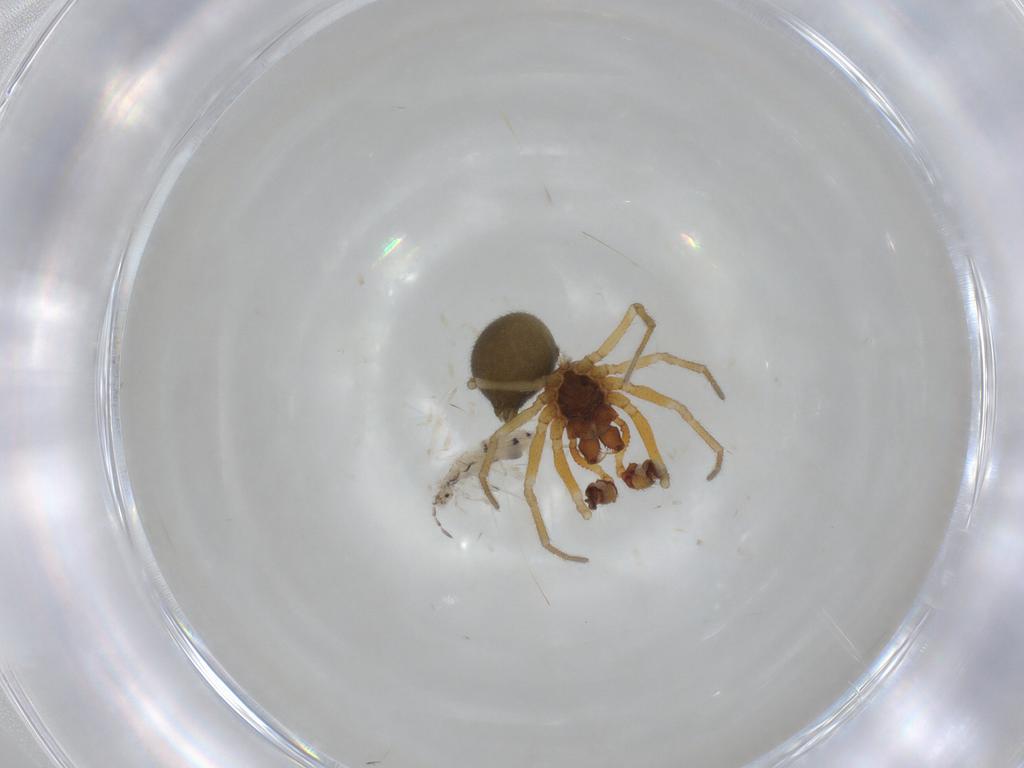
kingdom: Animalia
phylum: Arthropoda
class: Collembola
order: Entomobryomorpha
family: Entomobryidae
